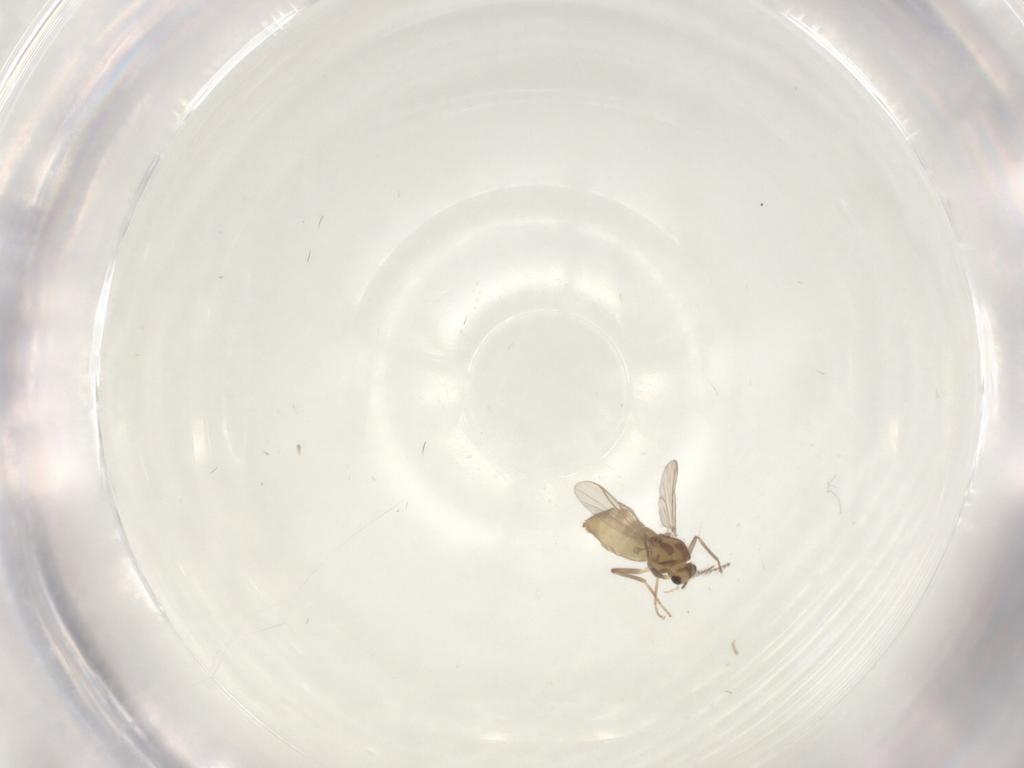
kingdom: Animalia
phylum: Arthropoda
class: Insecta
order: Diptera
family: Chironomidae
